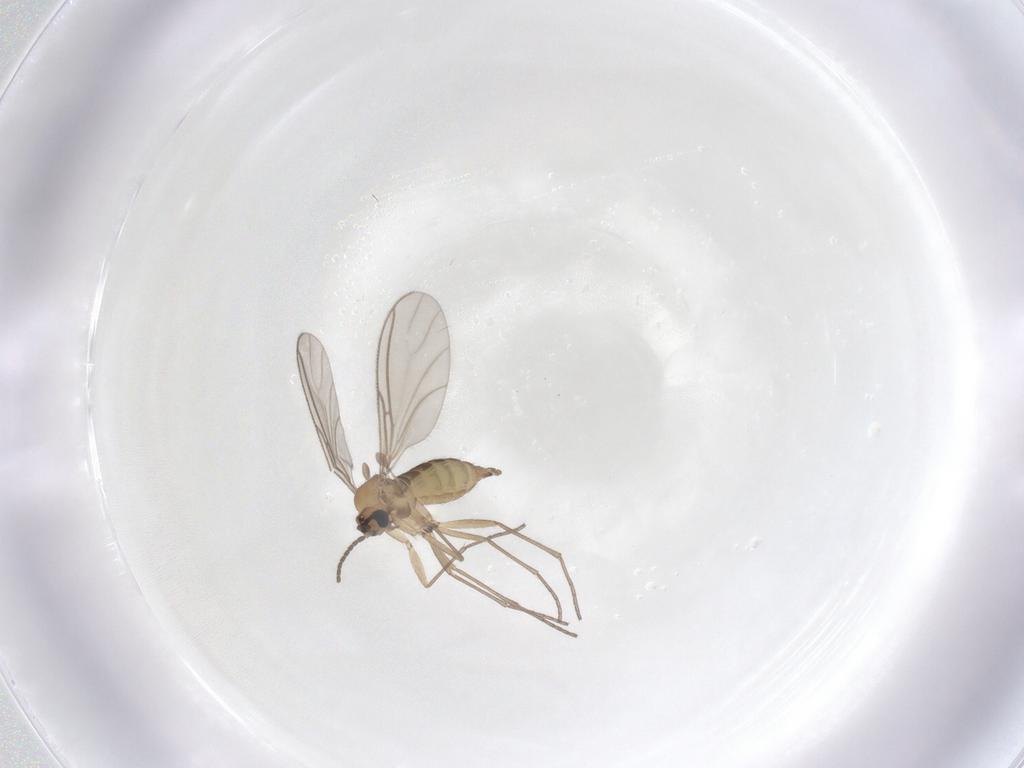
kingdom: Animalia
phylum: Arthropoda
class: Insecta
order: Diptera
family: Sciaridae
